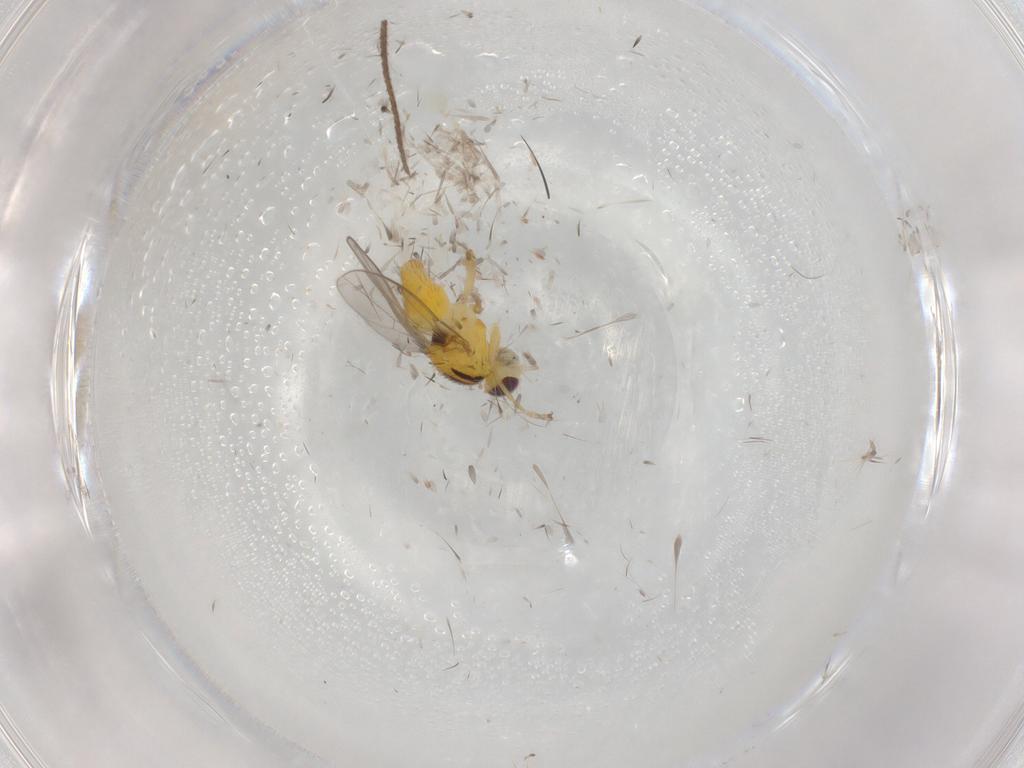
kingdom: Animalia
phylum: Arthropoda
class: Insecta
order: Diptera
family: Chloropidae
